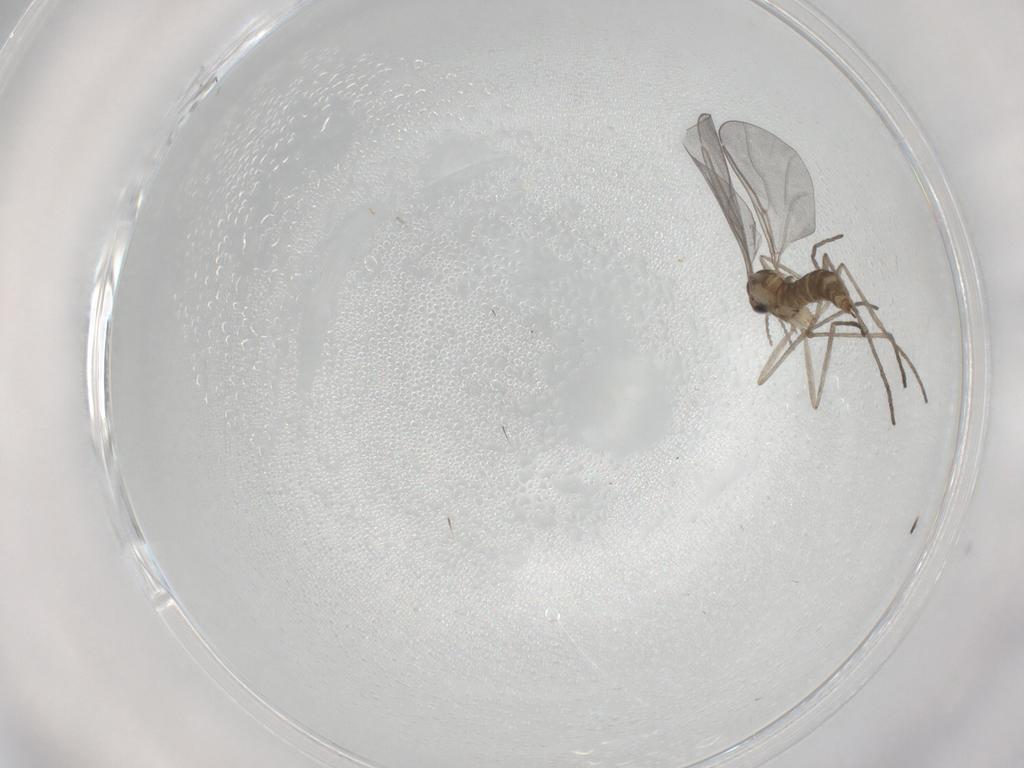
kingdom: Animalia
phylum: Arthropoda
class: Insecta
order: Diptera
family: Cecidomyiidae
